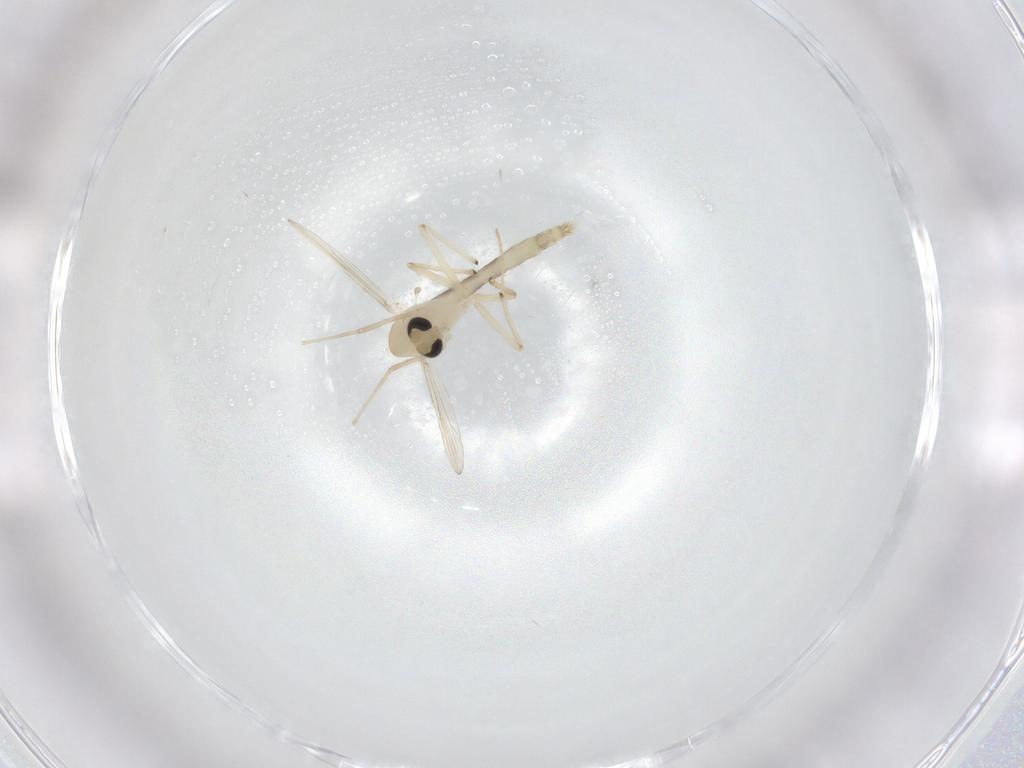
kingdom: Animalia
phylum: Arthropoda
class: Insecta
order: Diptera
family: Chironomidae
